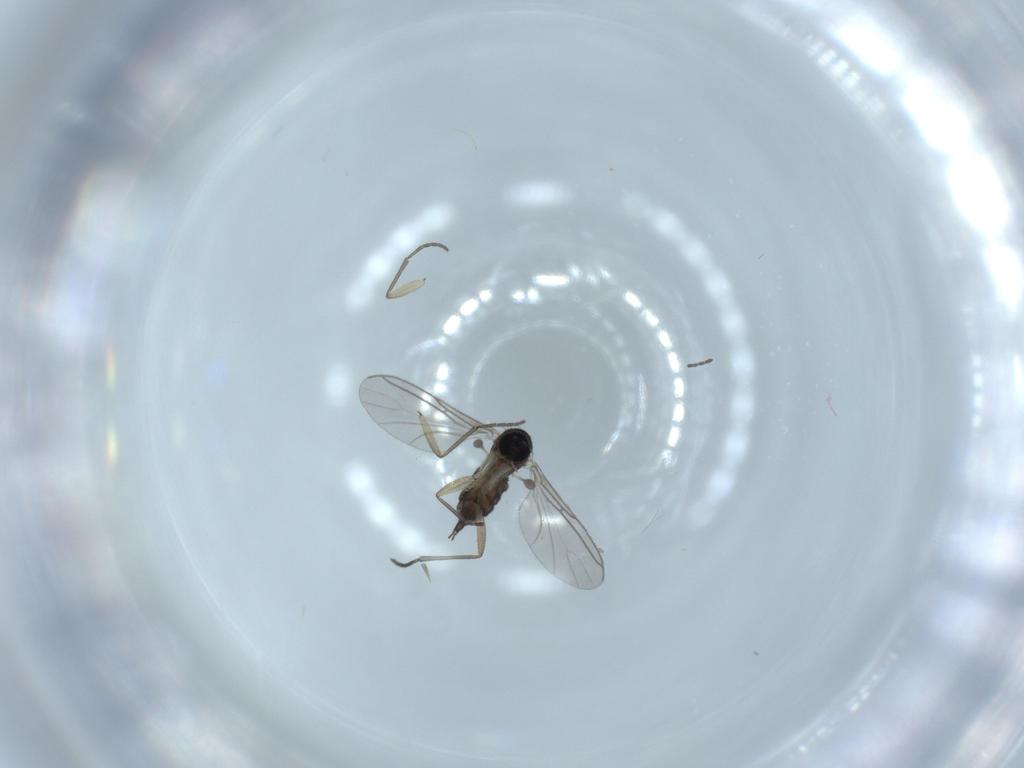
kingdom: Animalia
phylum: Arthropoda
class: Insecta
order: Diptera
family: Sciaridae
